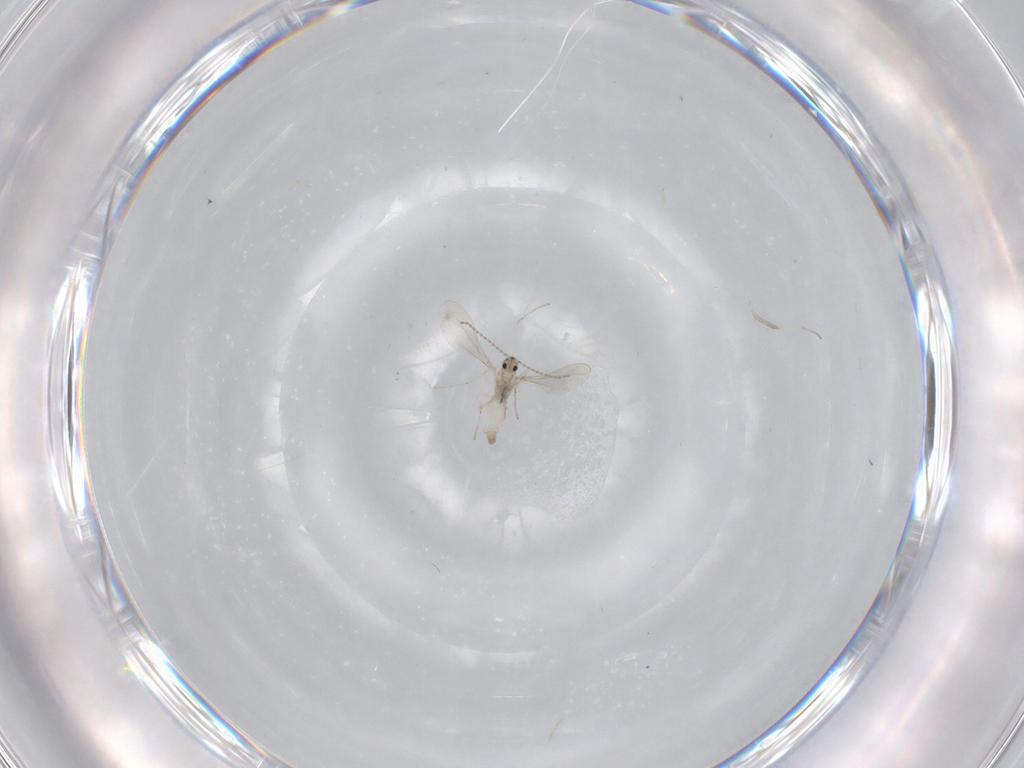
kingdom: Animalia
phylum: Arthropoda
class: Insecta
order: Diptera
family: Cecidomyiidae
